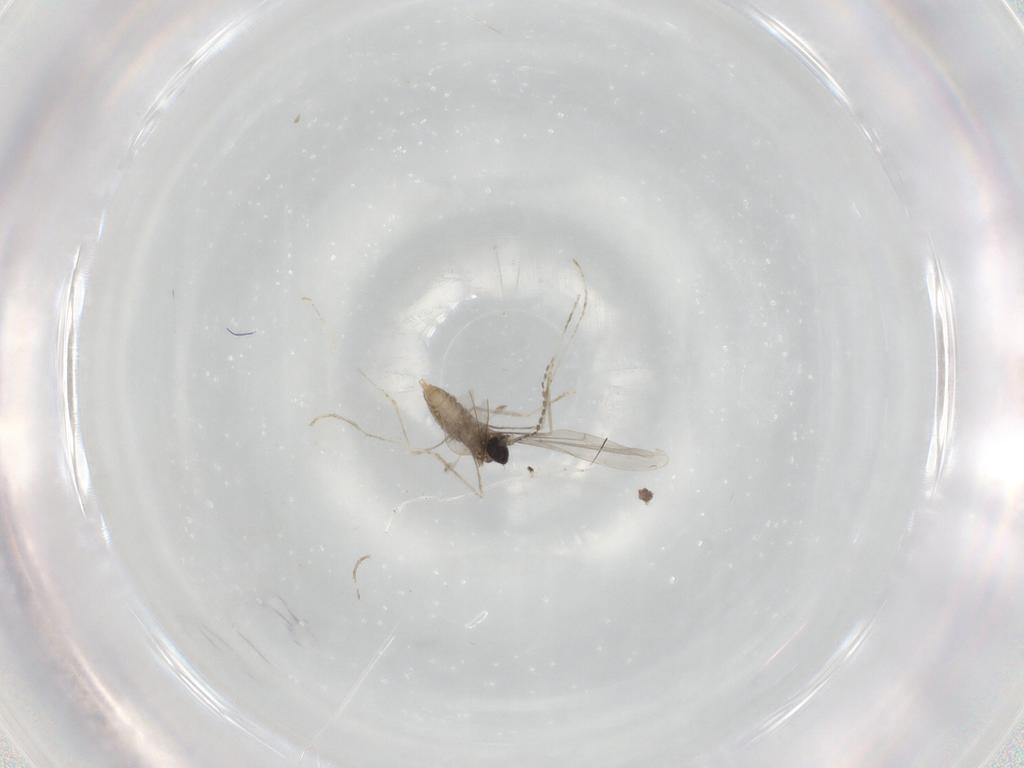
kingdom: Animalia
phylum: Arthropoda
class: Insecta
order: Diptera
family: Cecidomyiidae
